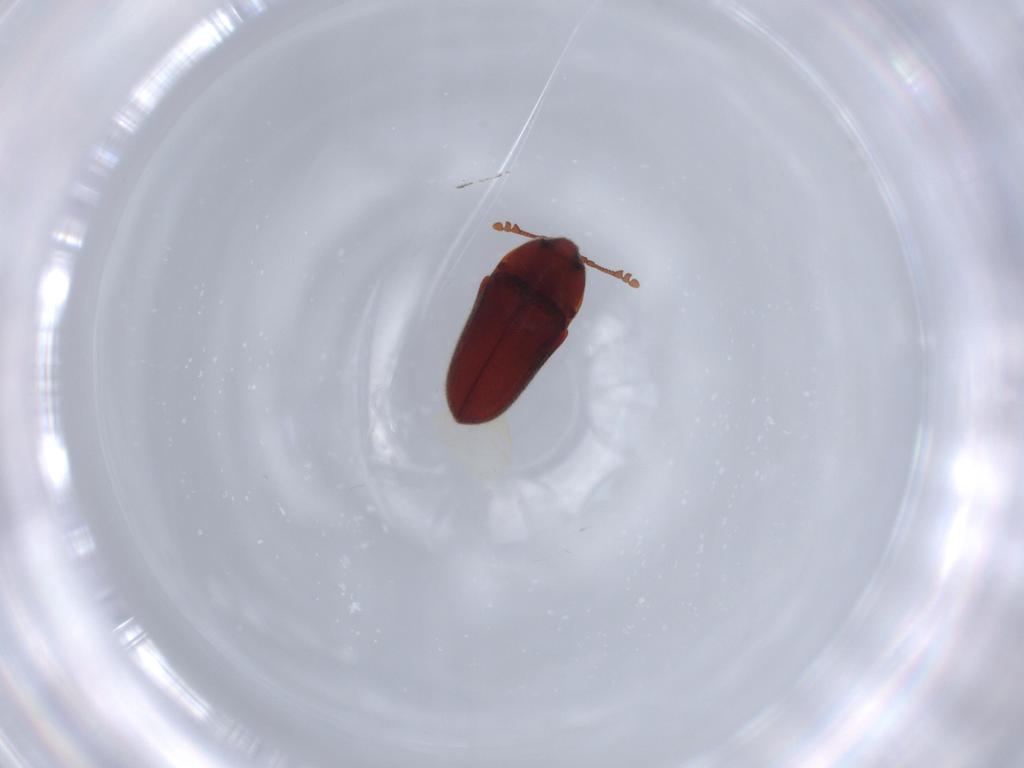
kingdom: Animalia
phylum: Arthropoda
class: Insecta
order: Coleoptera
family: Throscidae
